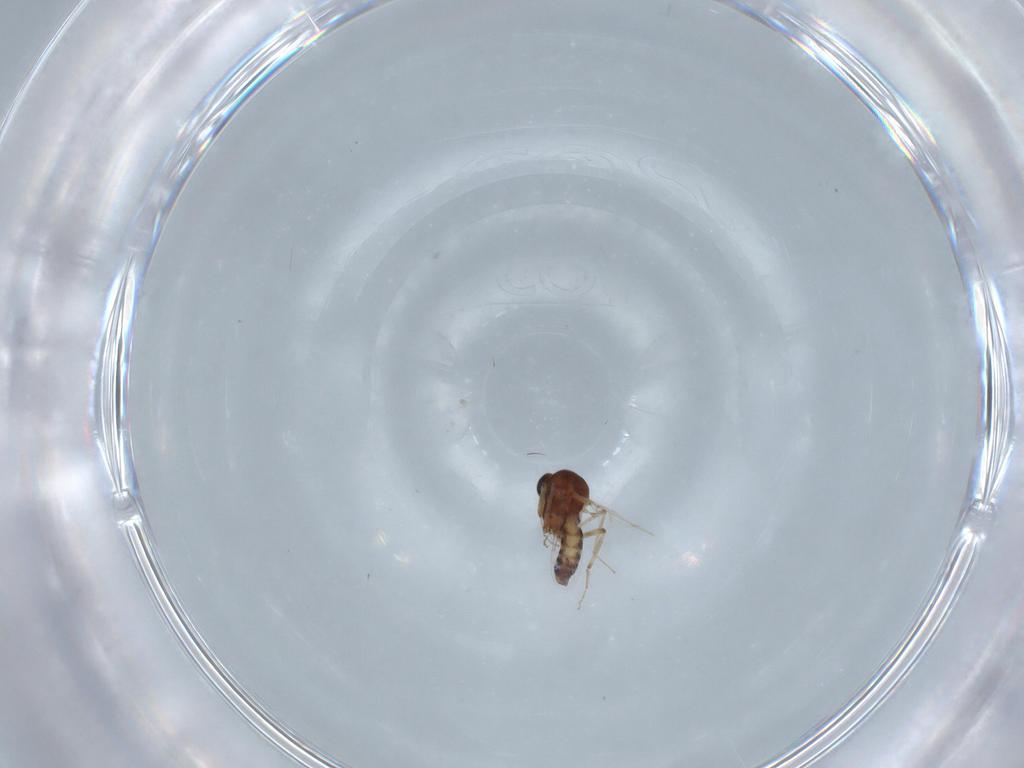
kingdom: Animalia
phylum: Arthropoda
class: Insecta
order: Diptera
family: Ceratopogonidae
